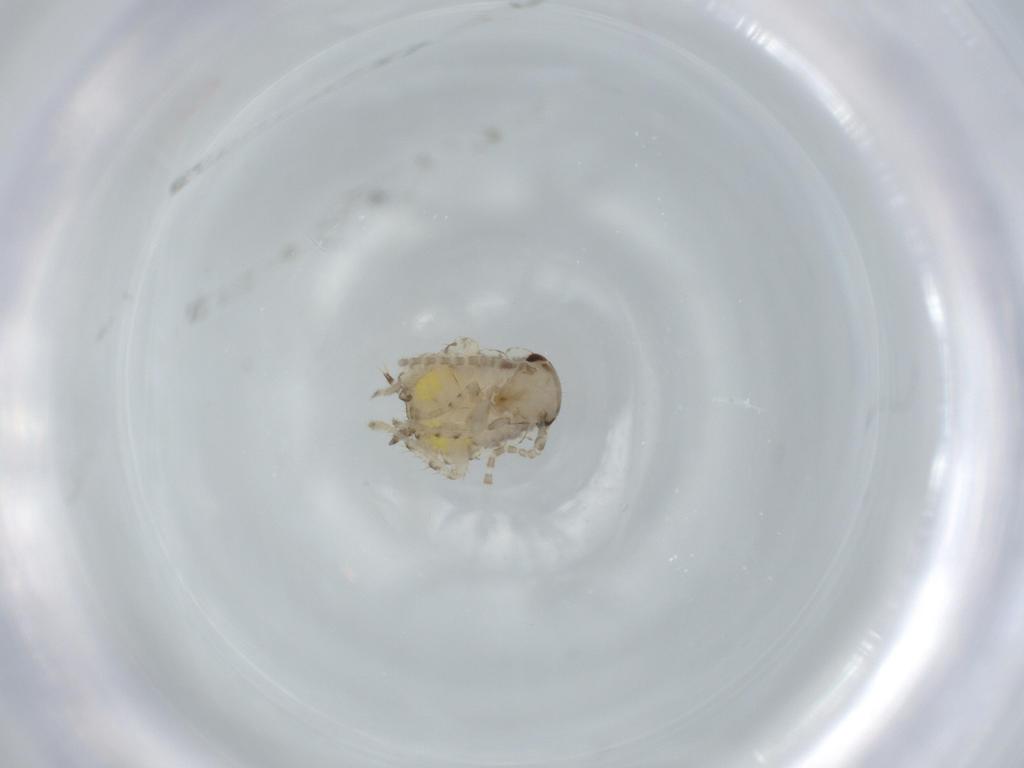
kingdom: Animalia
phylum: Arthropoda
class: Insecta
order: Blattodea
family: Ectobiidae
